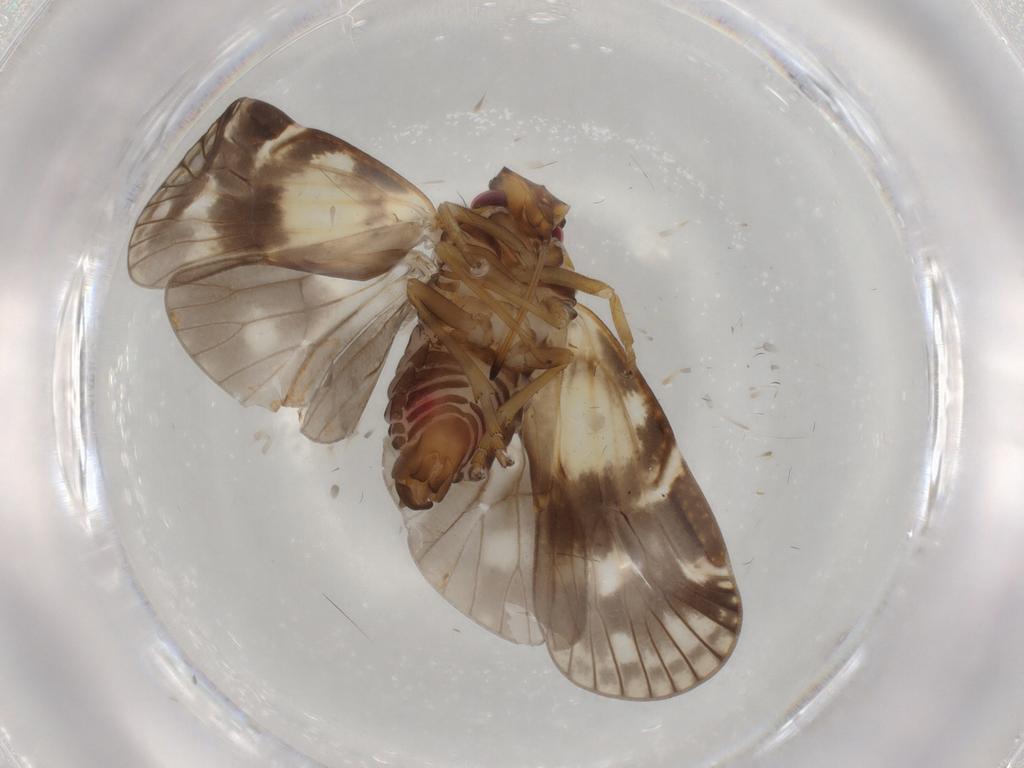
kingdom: Animalia
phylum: Arthropoda
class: Insecta
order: Hemiptera
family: Cixiidae
